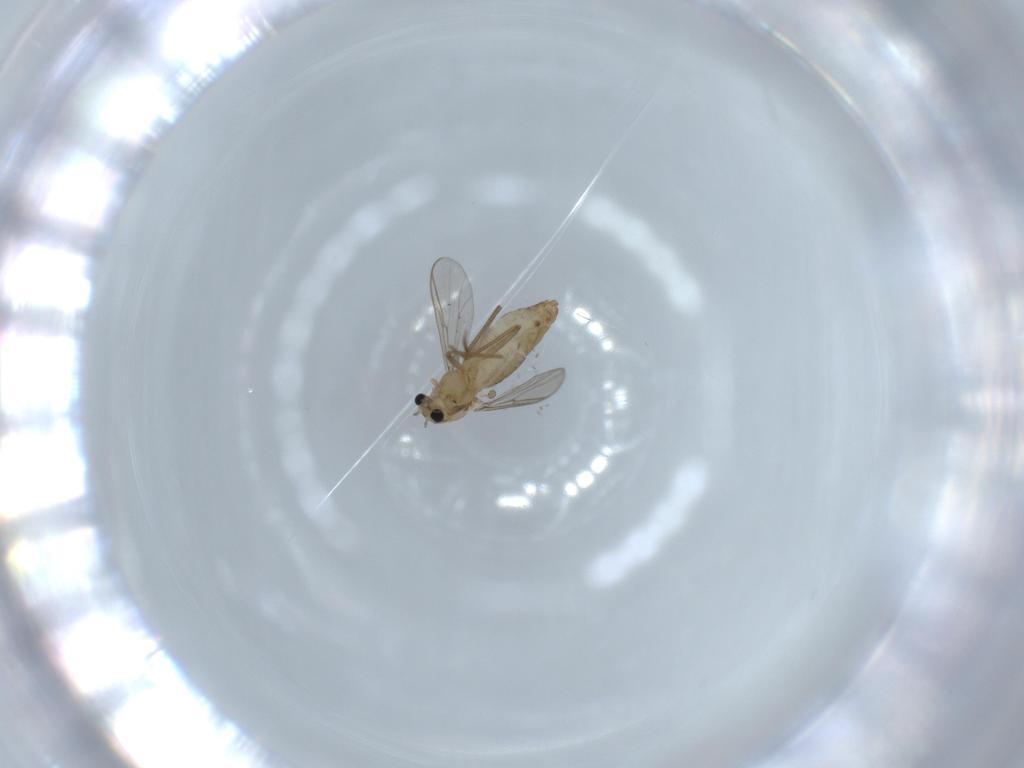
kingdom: Animalia
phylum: Arthropoda
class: Insecta
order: Diptera
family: Chironomidae
